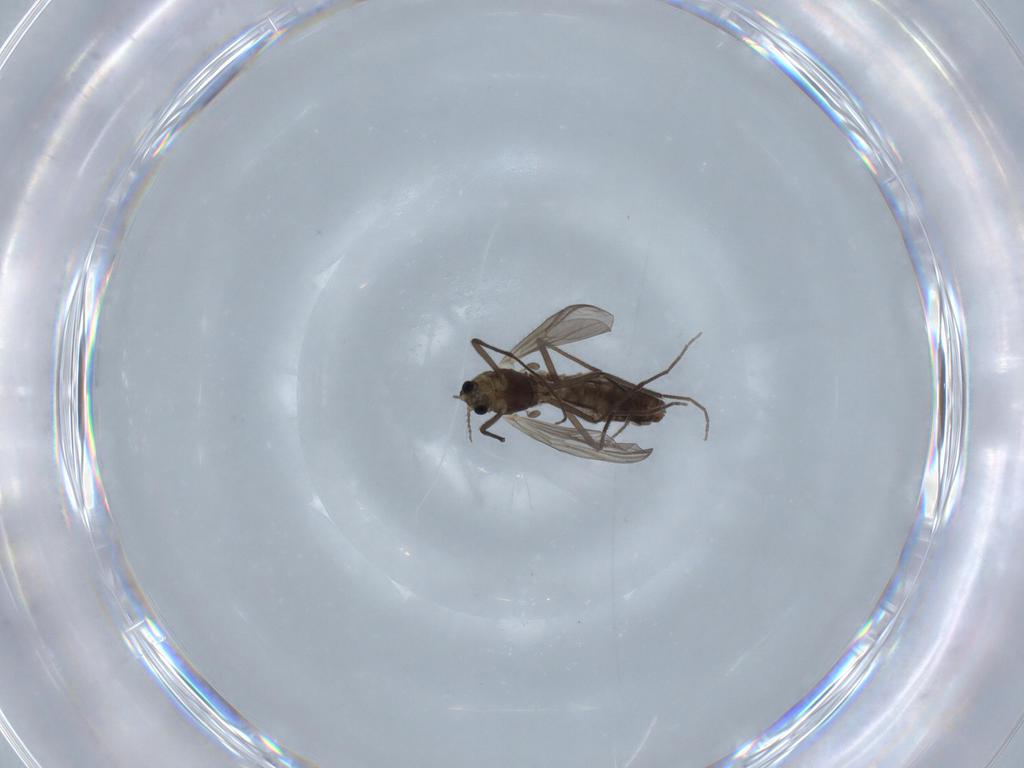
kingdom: Animalia
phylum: Arthropoda
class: Insecta
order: Diptera
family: Chironomidae
